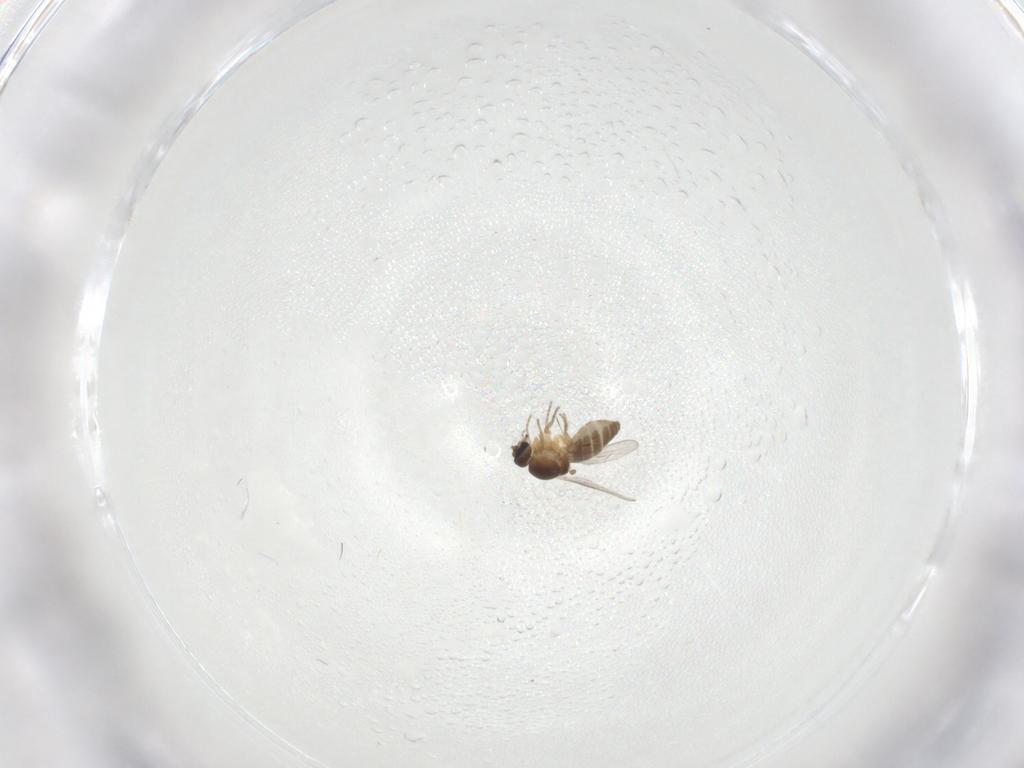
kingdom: Animalia
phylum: Arthropoda
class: Insecta
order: Diptera
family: Ceratopogonidae
